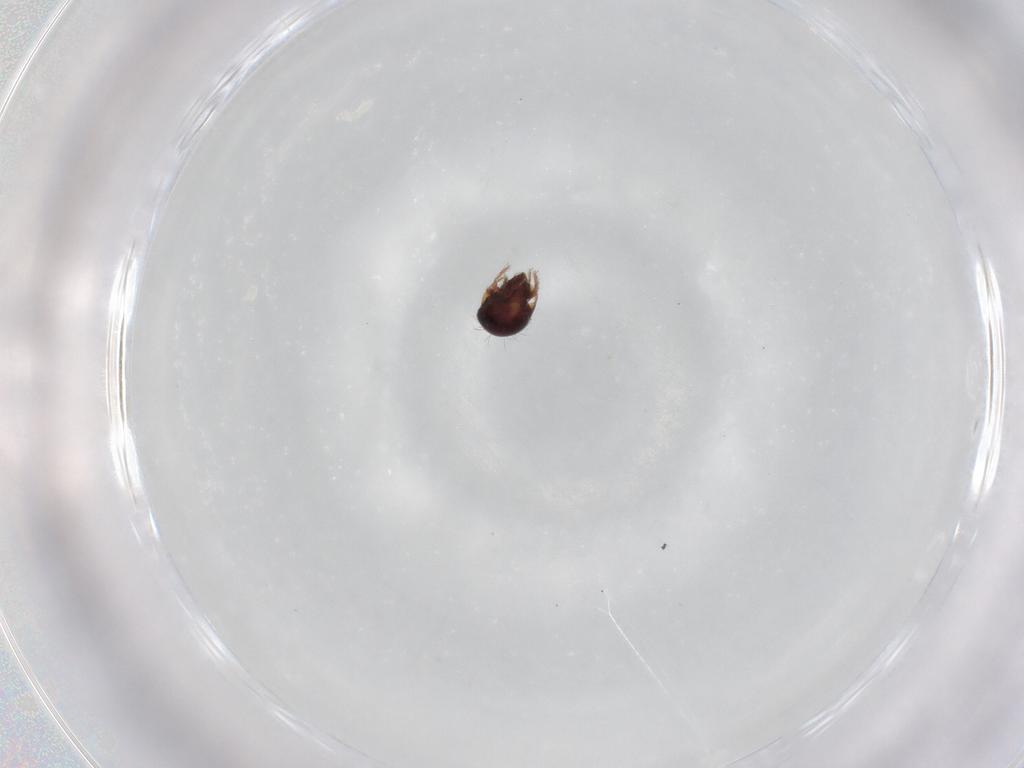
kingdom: Animalia
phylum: Arthropoda
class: Arachnida
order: Sarcoptiformes
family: Humerobatidae
